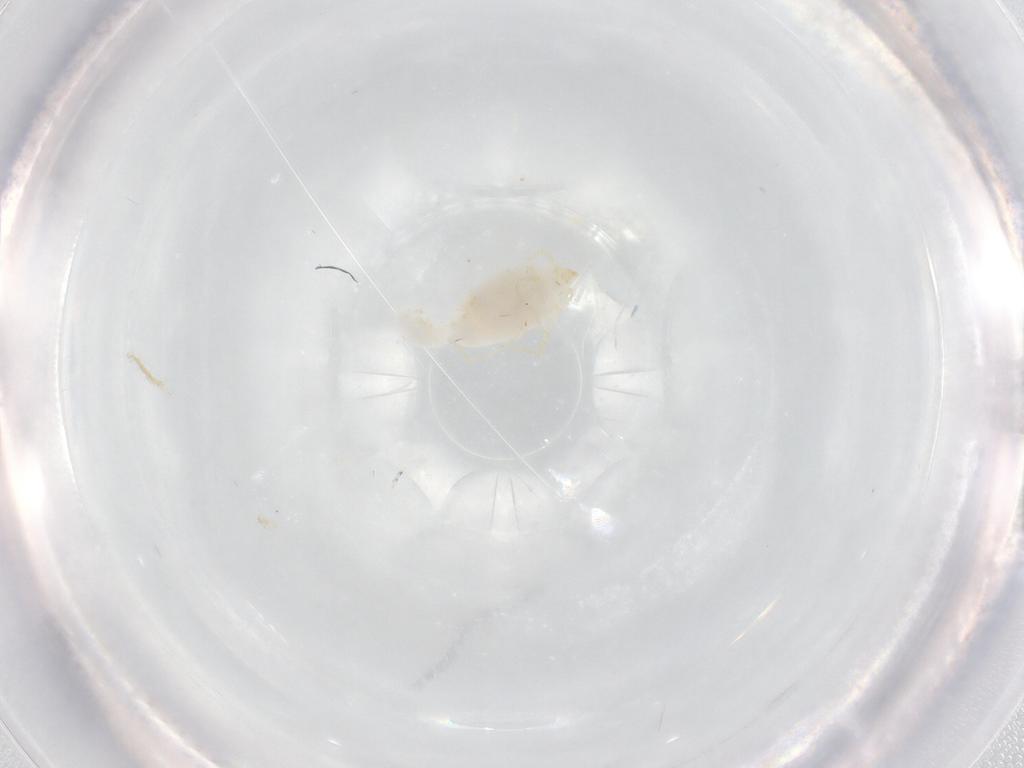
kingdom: Animalia
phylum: Arthropoda
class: Arachnida
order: Trombidiformes
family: Erythraeidae
